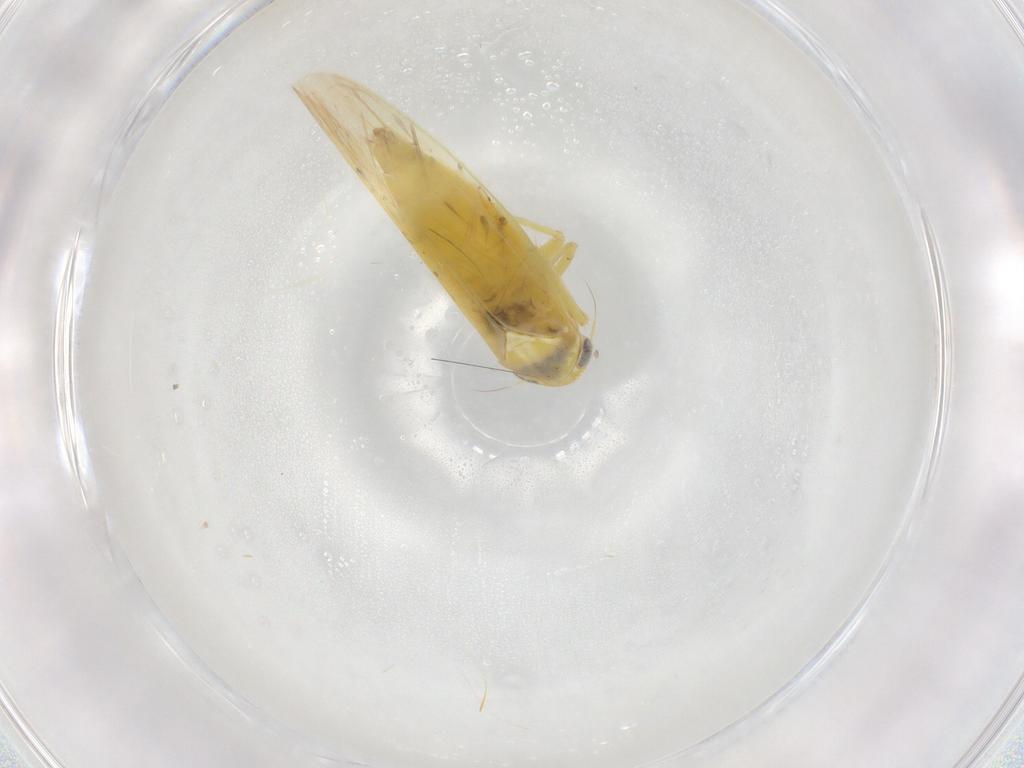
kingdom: Animalia
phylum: Arthropoda
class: Insecta
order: Hemiptera
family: Cicadellidae
